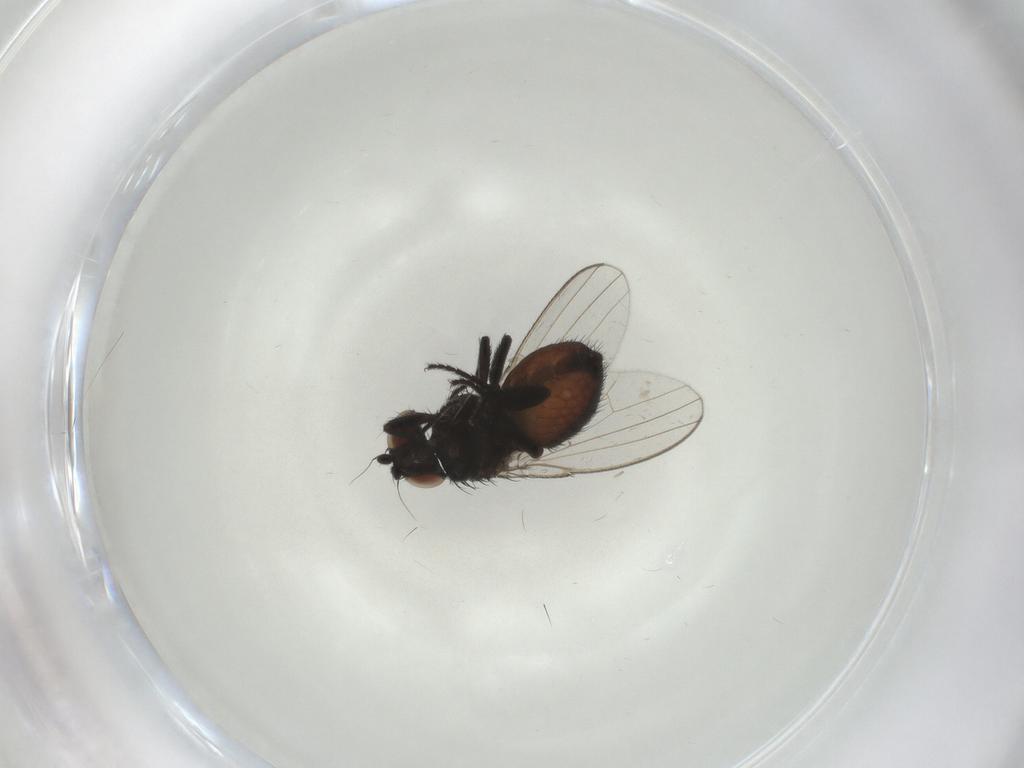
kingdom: Animalia
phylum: Arthropoda
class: Insecta
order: Diptera
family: Milichiidae
